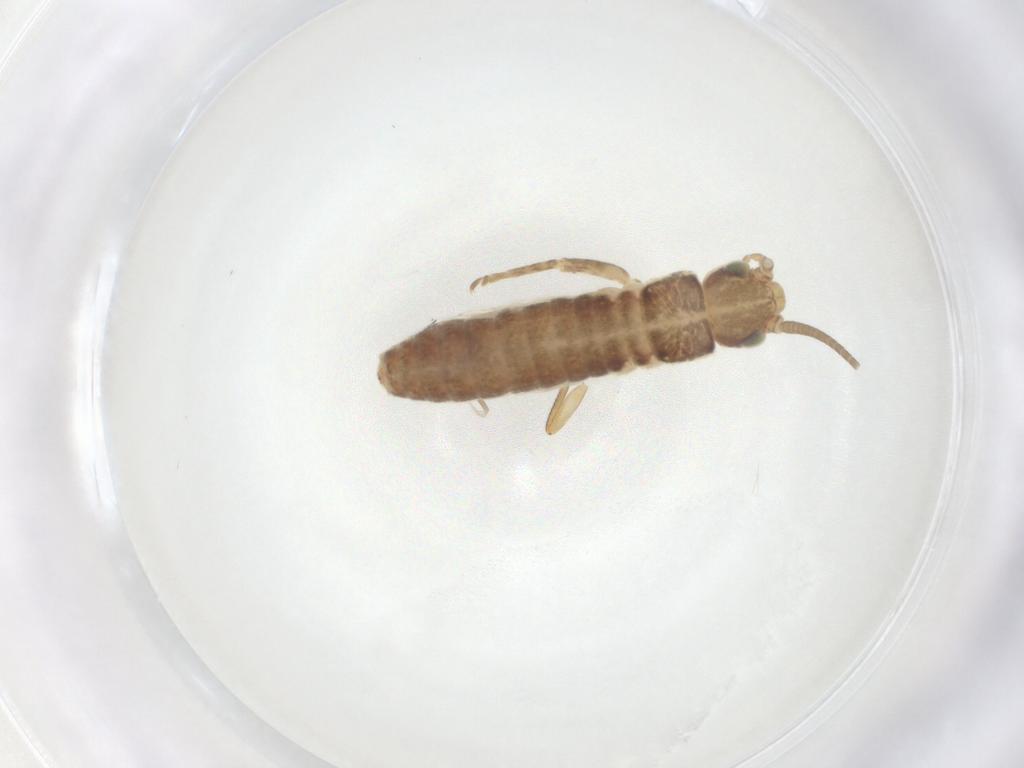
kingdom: Animalia
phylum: Arthropoda
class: Insecta
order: Orthoptera
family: Gryllidae
